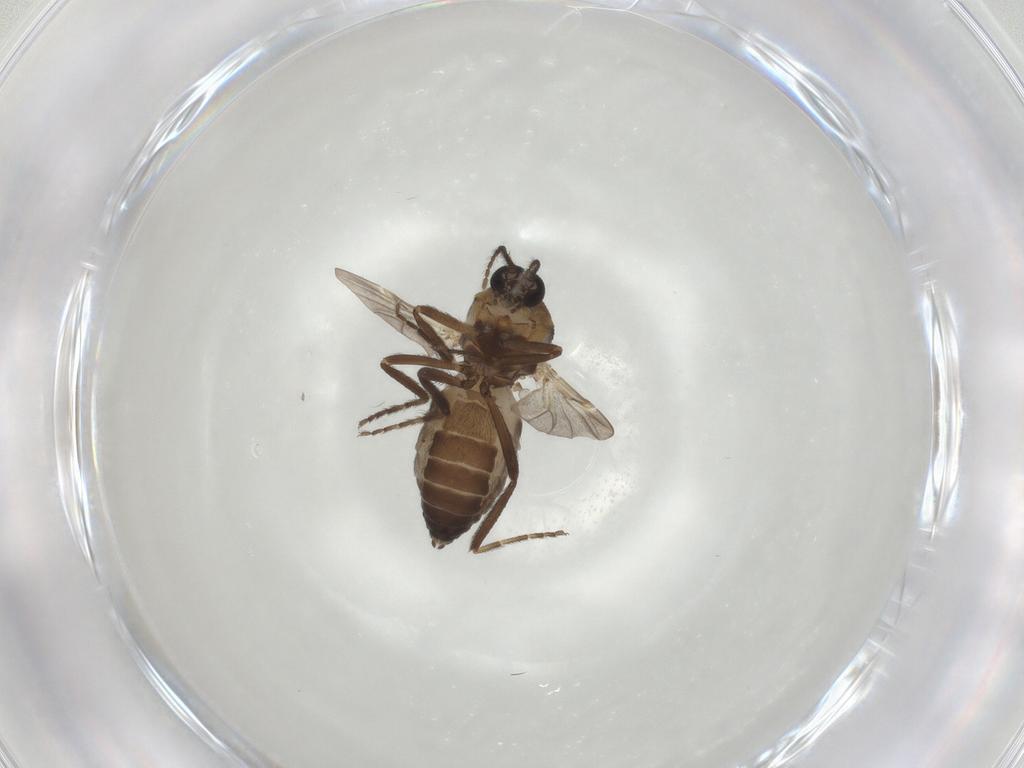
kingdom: Animalia
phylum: Arthropoda
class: Insecta
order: Diptera
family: Ceratopogonidae
